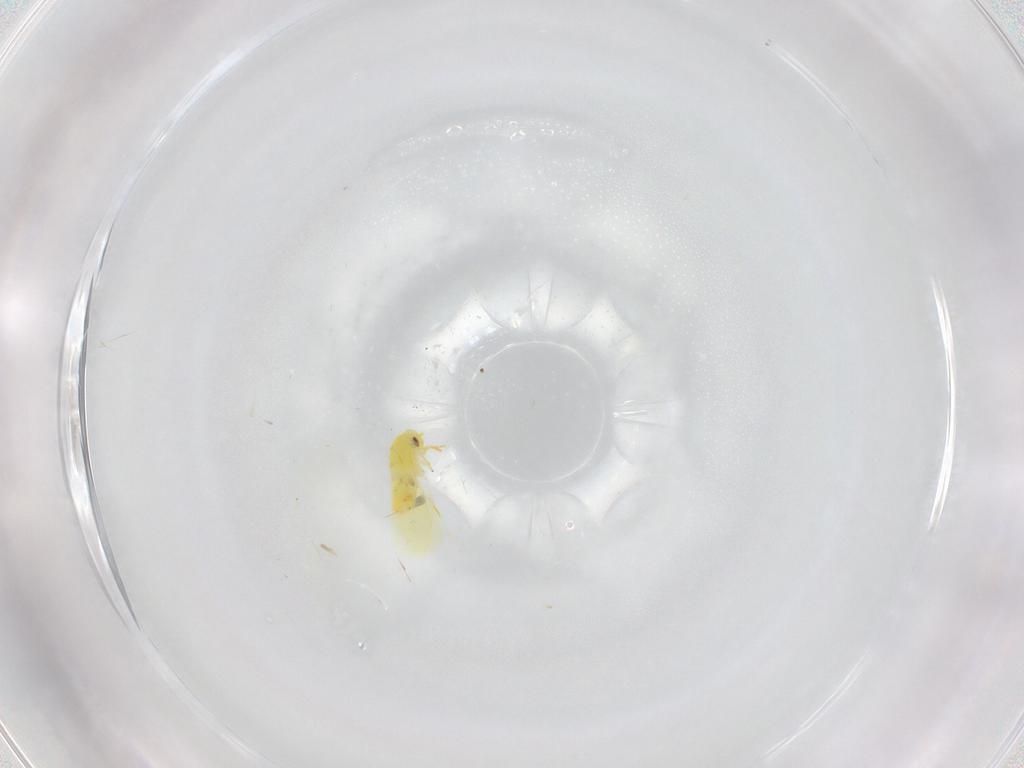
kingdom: Animalia
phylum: Arthropoda
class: Insecta
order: Hemiptera
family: Aleyrodidae
